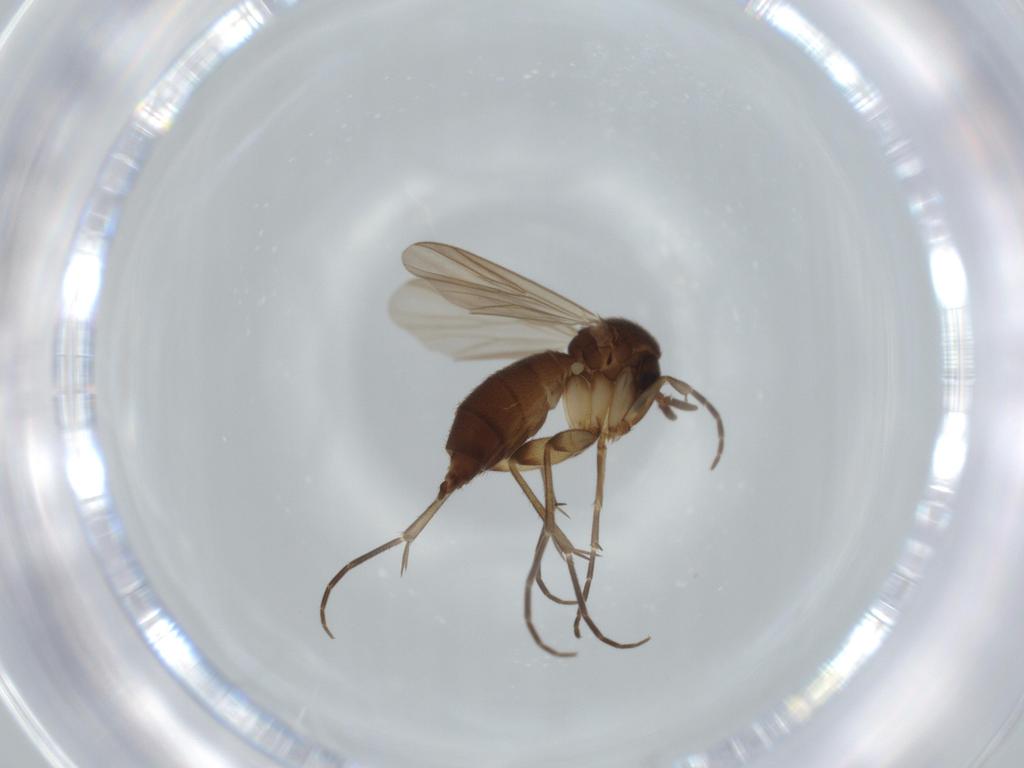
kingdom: Animalia
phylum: Arthropoda
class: Insecta
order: Diptera
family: Mycetophilidae
